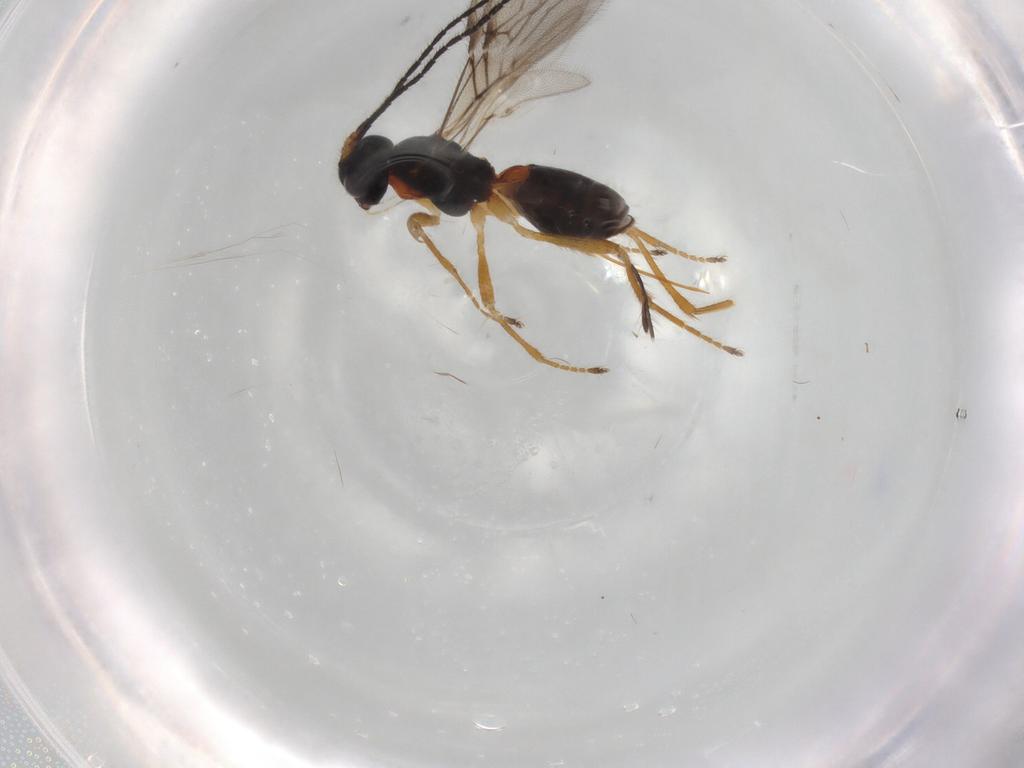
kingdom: Animalia
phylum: Arthropoda
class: Insecta
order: Hymenoptera
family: Braconidae
